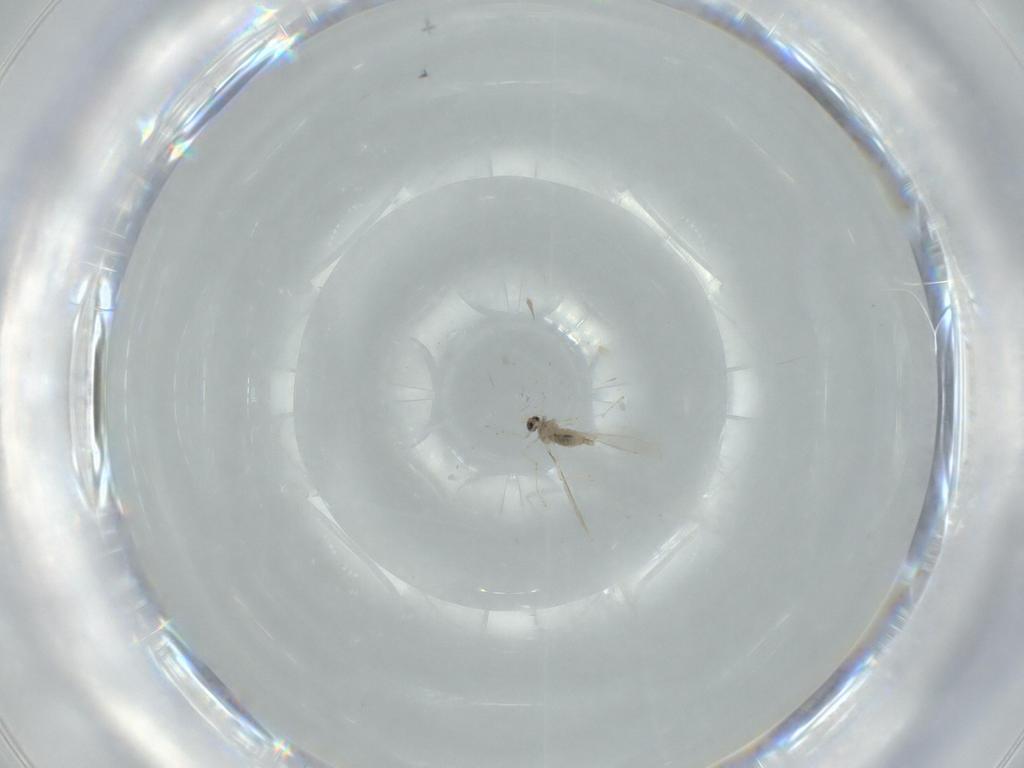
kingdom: Animalia
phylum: Arthropoda
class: Insecta
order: Diptera
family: Cecidomyiidae
